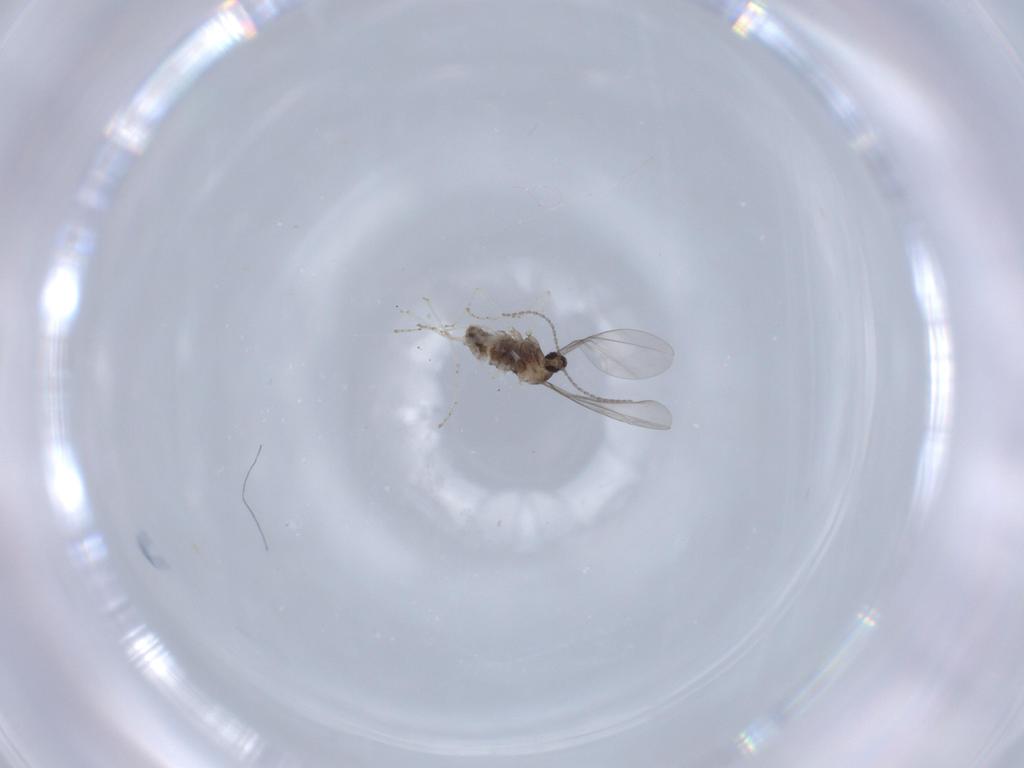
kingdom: Animalia
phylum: Arthropoda
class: Insecta
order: Diptera
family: Cecidomyiidae
